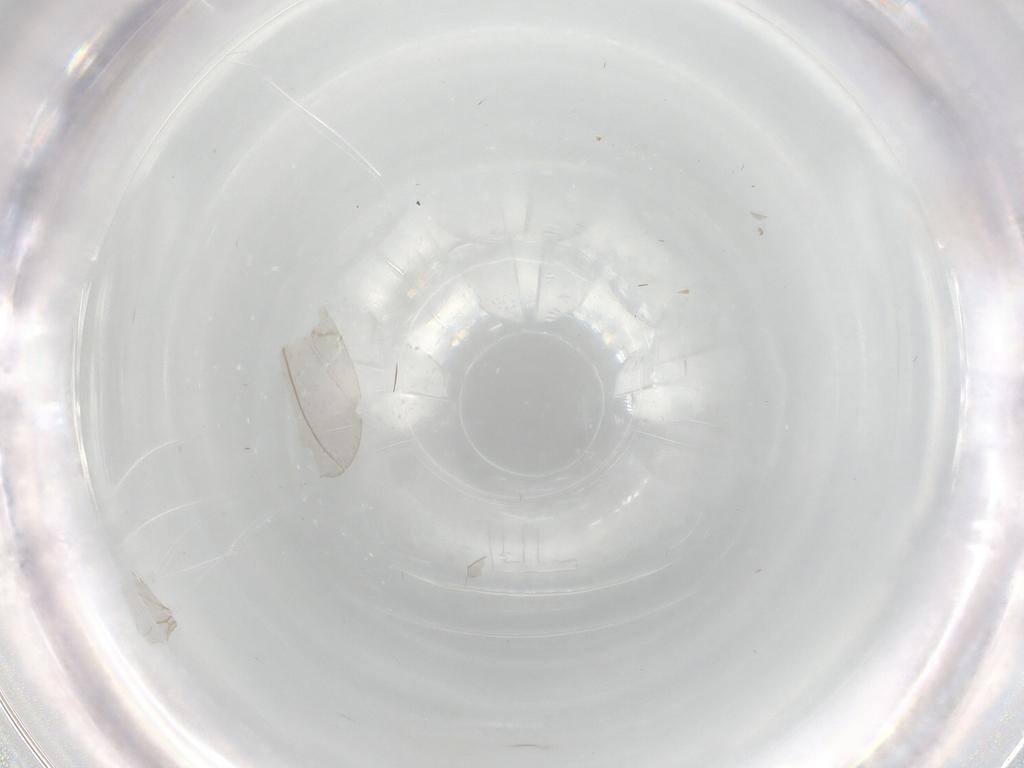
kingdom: Animalia
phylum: Arthropoda
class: Insecta
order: Diptera
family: Cecidomyiidae
